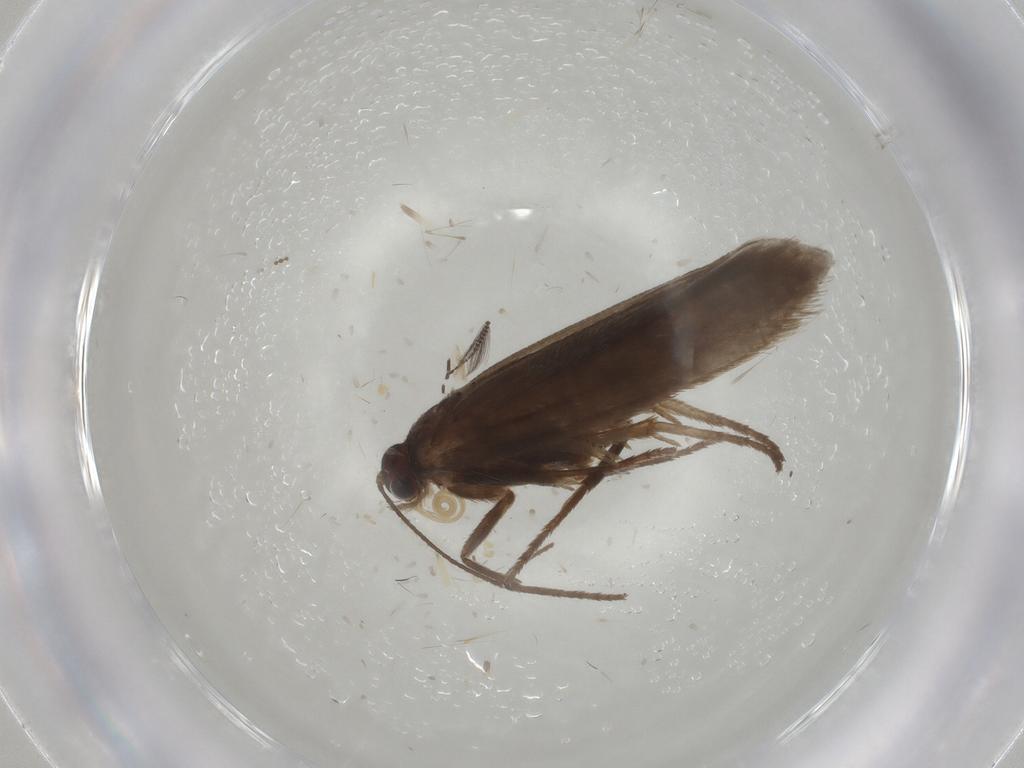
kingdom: Animalia
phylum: Arthropoda
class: Insecta
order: Lepidoptera
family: Limacodidae
